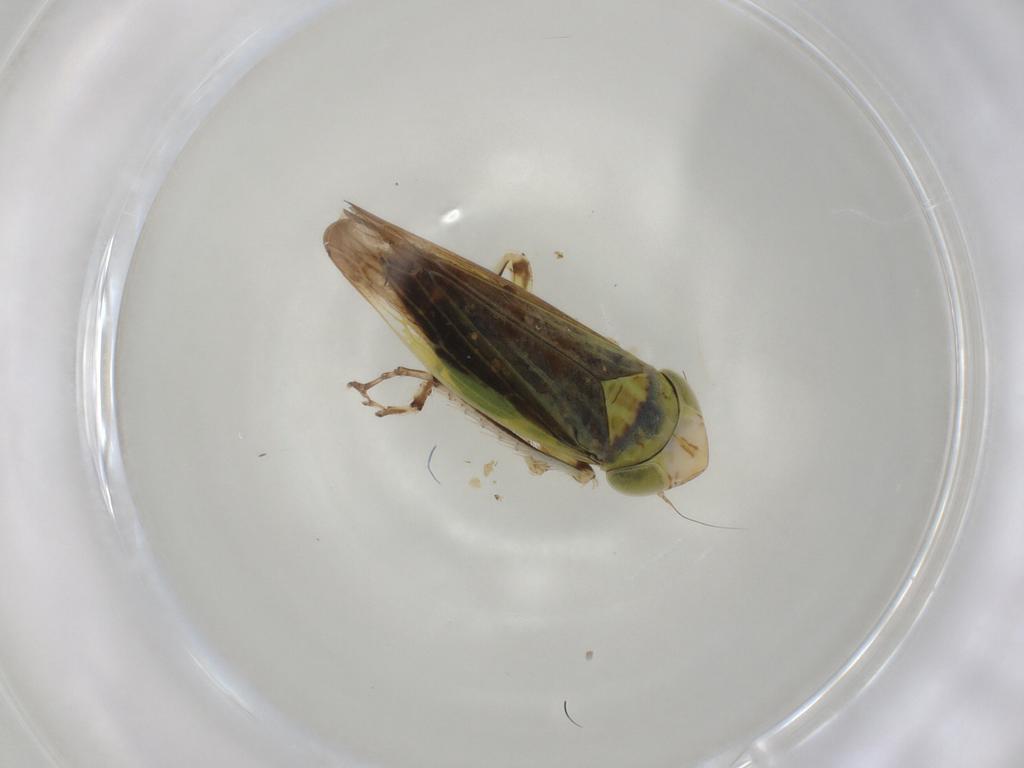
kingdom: Animalia
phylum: Arthropoda
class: Insecta
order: Hemiptera
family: Cicadellidae
